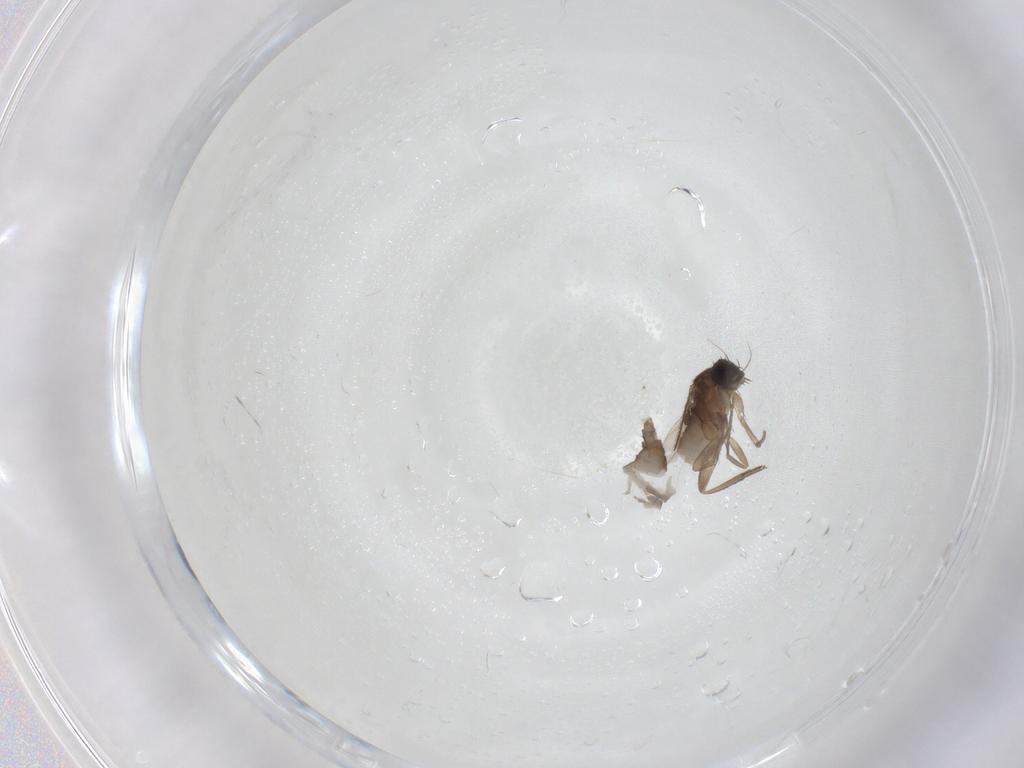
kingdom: Animalia
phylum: Arthropoda
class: Insecta
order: Diptera
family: Phoridae
